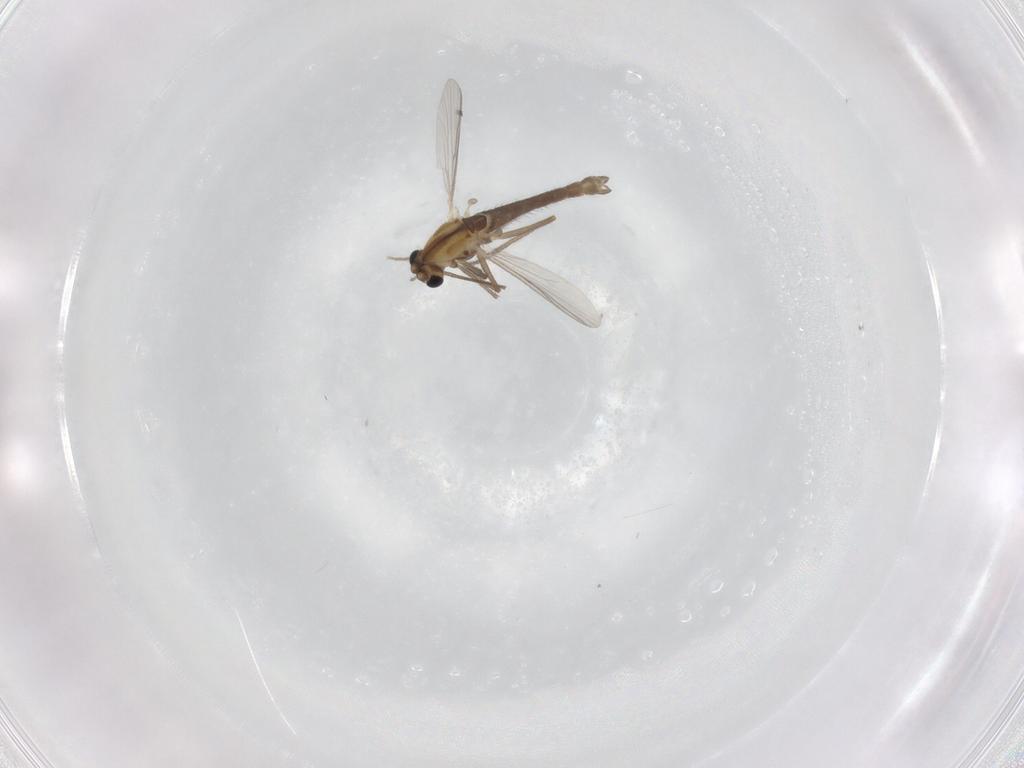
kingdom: Animalia
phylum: Arthropoda
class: Insecta
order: Diptera
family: Chironomidae
